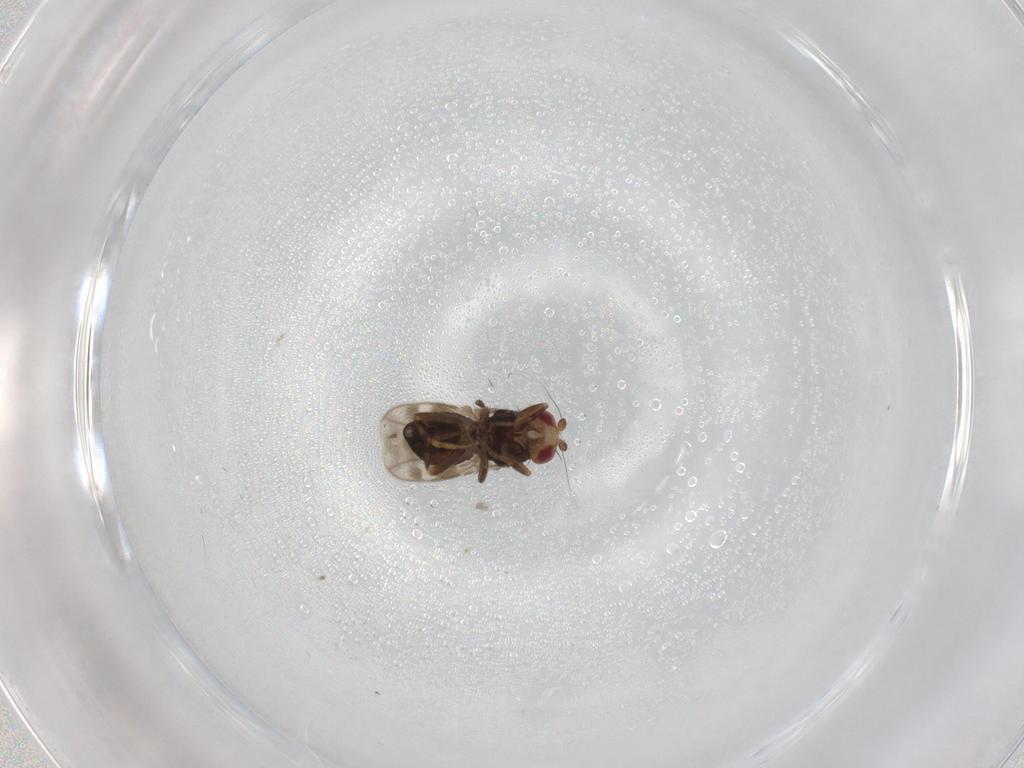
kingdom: Animalia
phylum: Arthropoda
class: Insecta
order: Diptera
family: Sphaeroceridae
